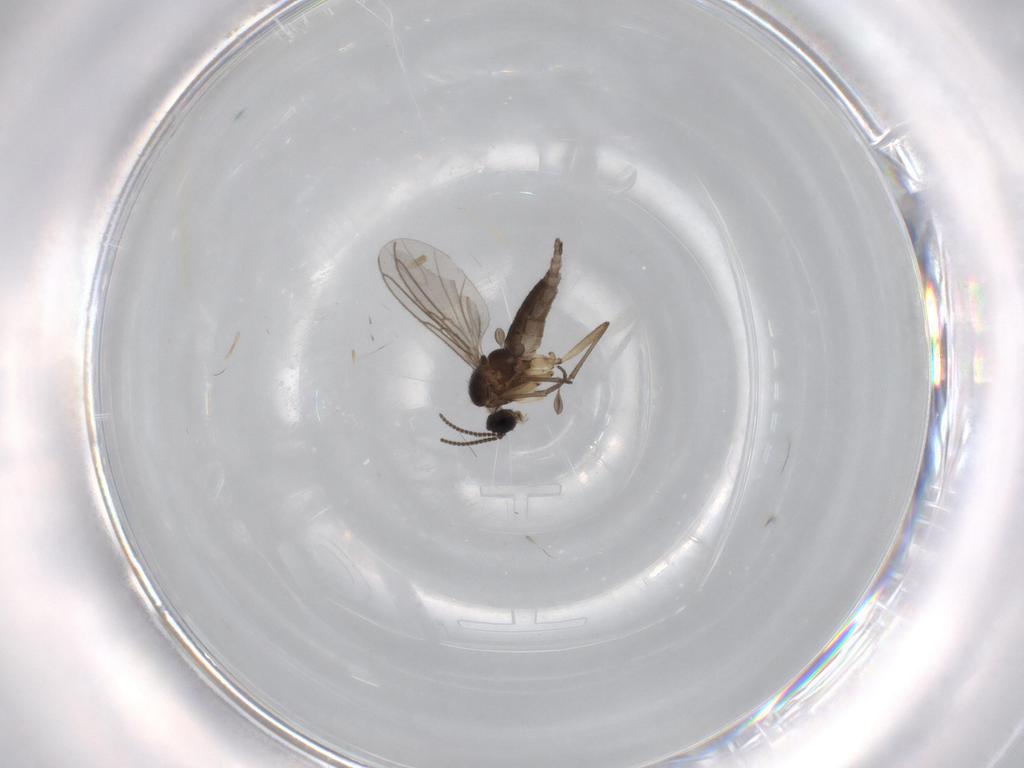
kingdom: Animalia
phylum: Arthropoda
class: Insecta
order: Diptera
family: Sciaridae
